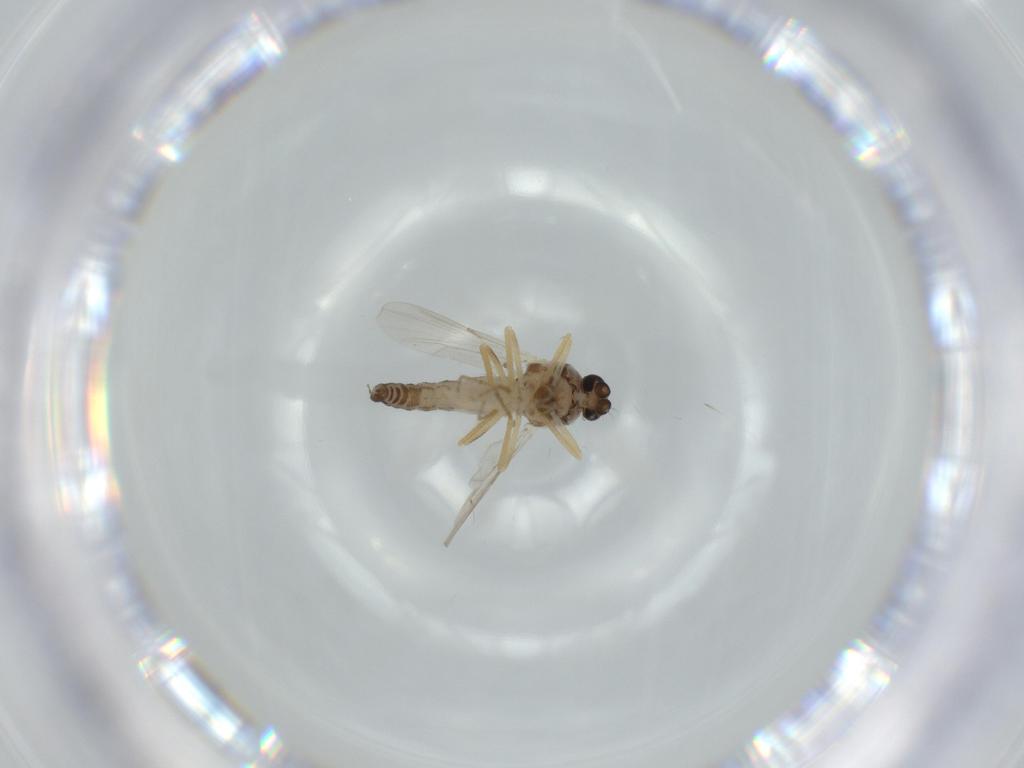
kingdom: Animalia
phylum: Arthropoda
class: Insecta
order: Diptera
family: Ceratopogonidae
